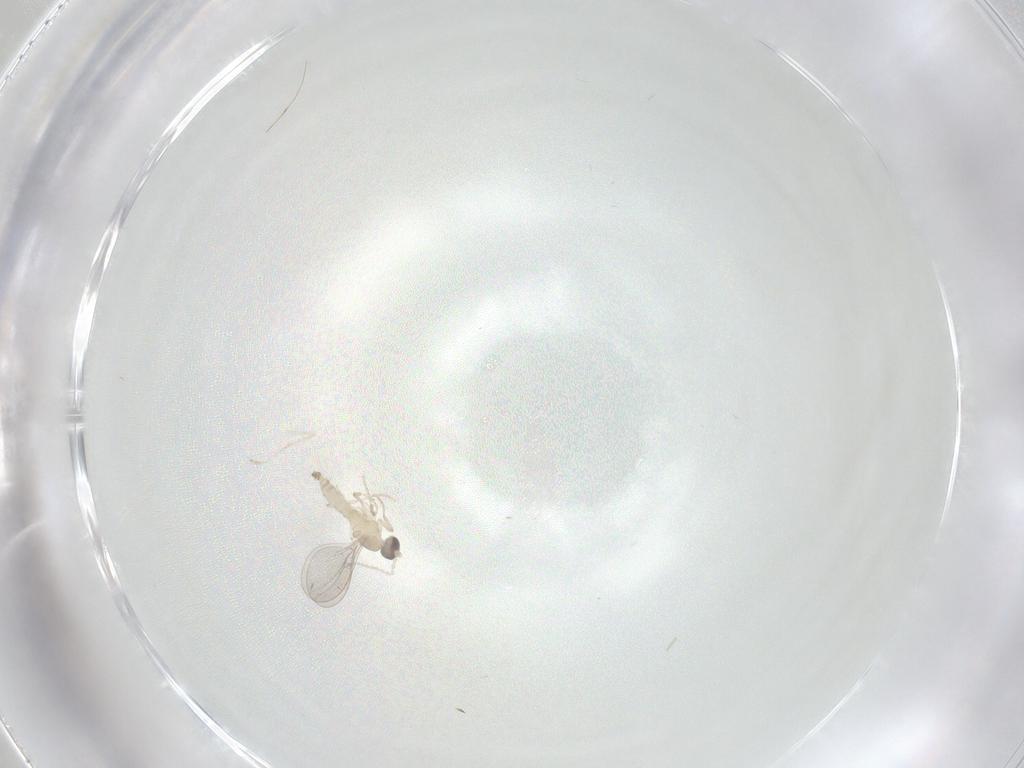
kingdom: Animalia
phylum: Arthropoda
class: Insecta
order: Diptera
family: Cecidomyiidae
